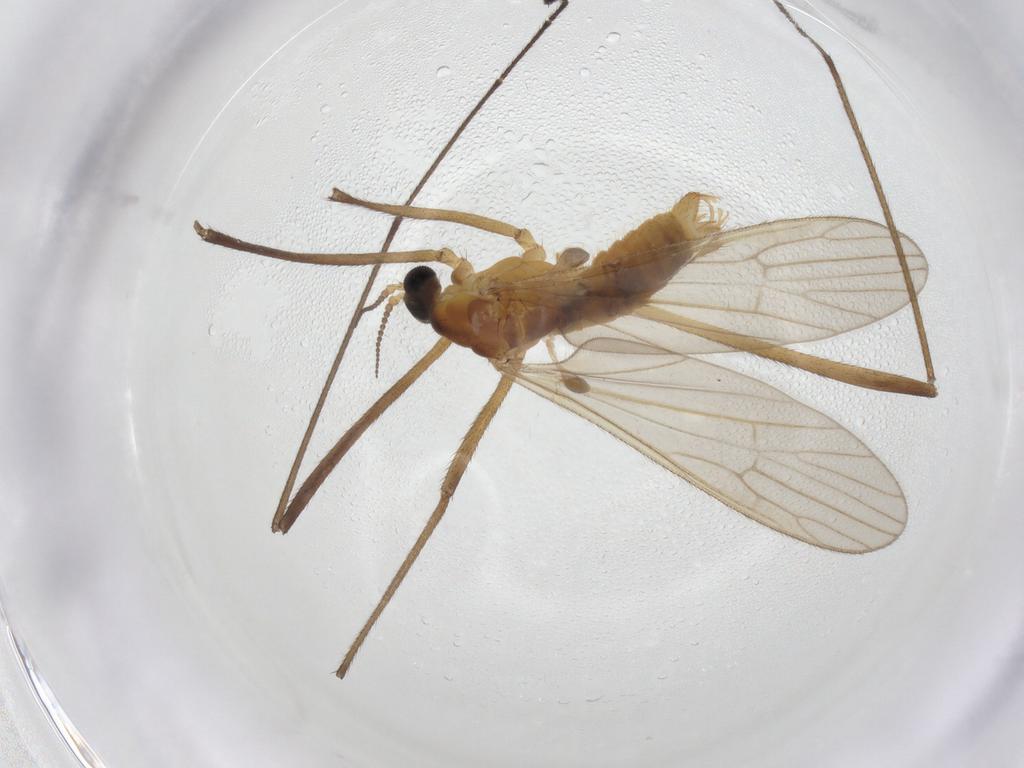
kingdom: Animalia
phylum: Arthropoda
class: Insecta
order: Diptera
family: Limoniidae
